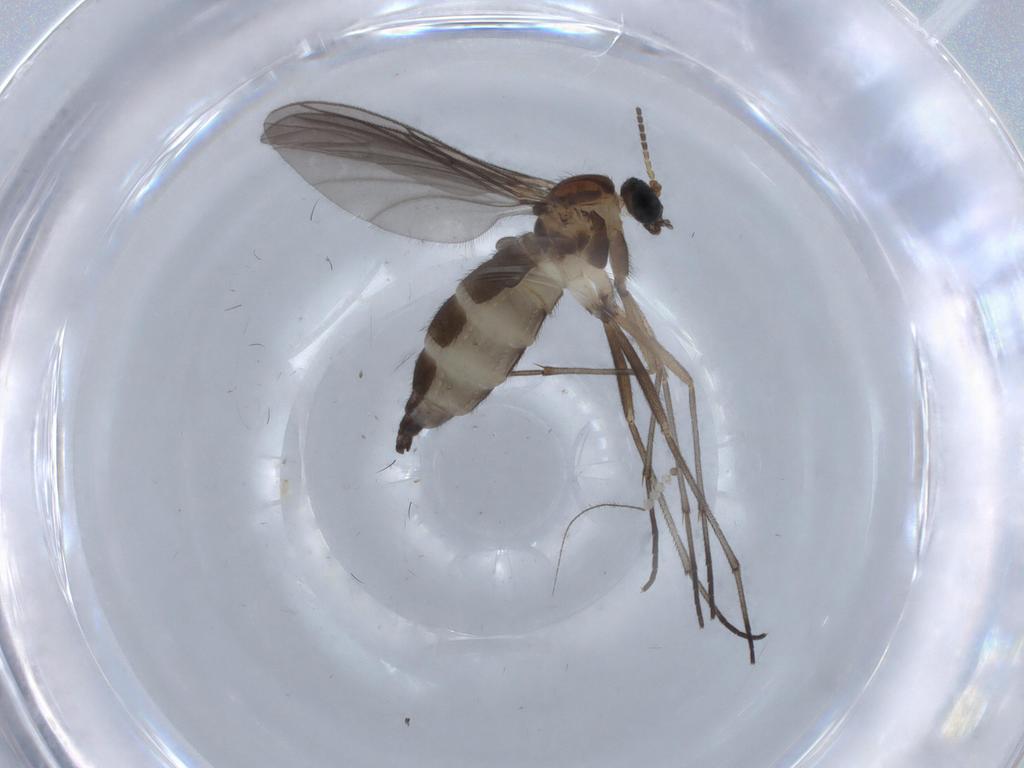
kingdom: Animalia
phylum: Arthropoda
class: Insecta
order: Diptera
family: Sciaridae
